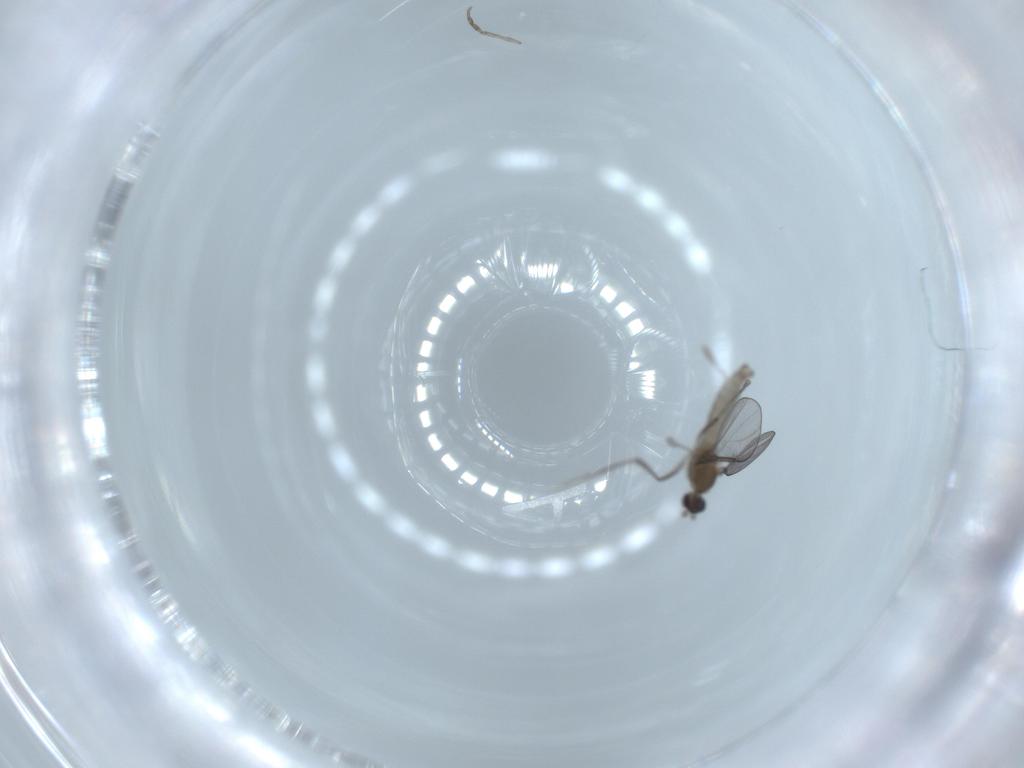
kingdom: Animalia
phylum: Arthropoda
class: Insecta
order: Diptera
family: Cecidomyiidae
